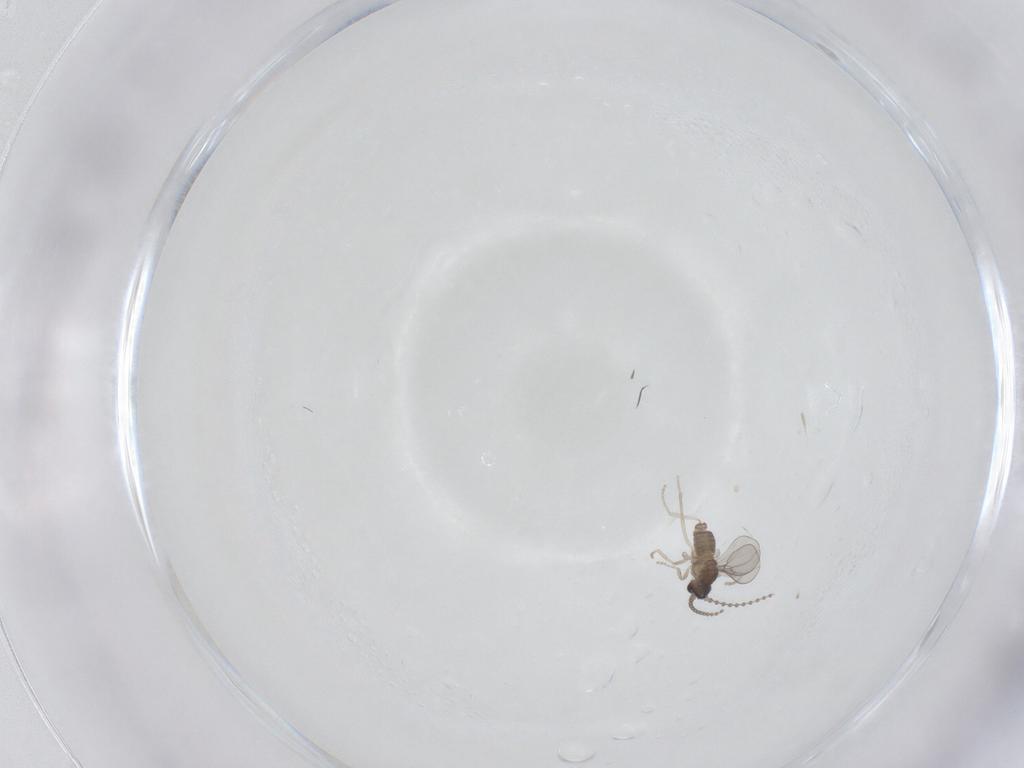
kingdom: Animalia
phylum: Arthropoda
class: Insecta
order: Diptera
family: Cecidomyiidae
